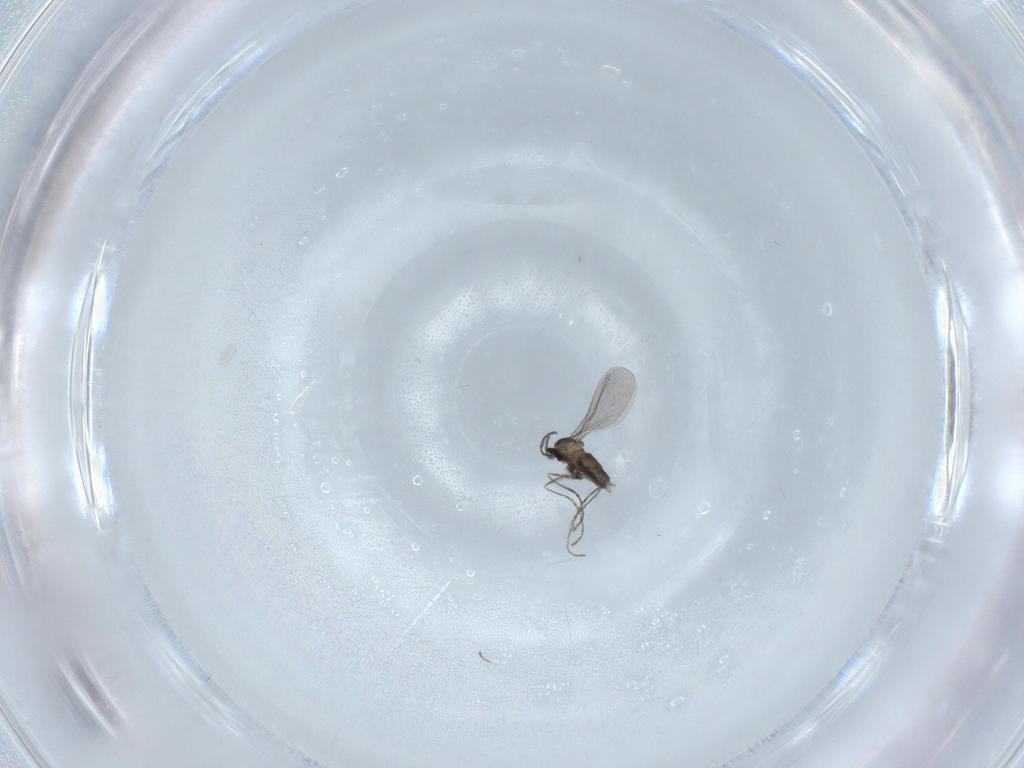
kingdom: Animalia
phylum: Arthropoda
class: Insecta
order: Diptera
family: Cecidomyiidae
